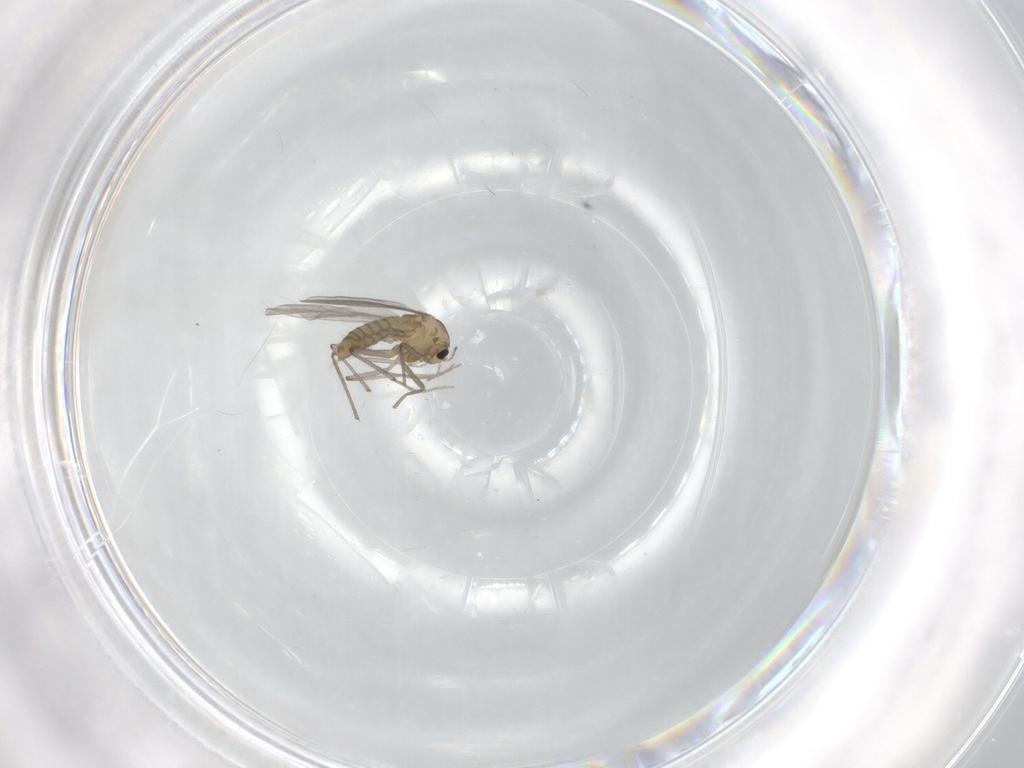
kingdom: Animalia
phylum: Arthropoda
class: Insecta
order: Diptera
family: Chironomidae
